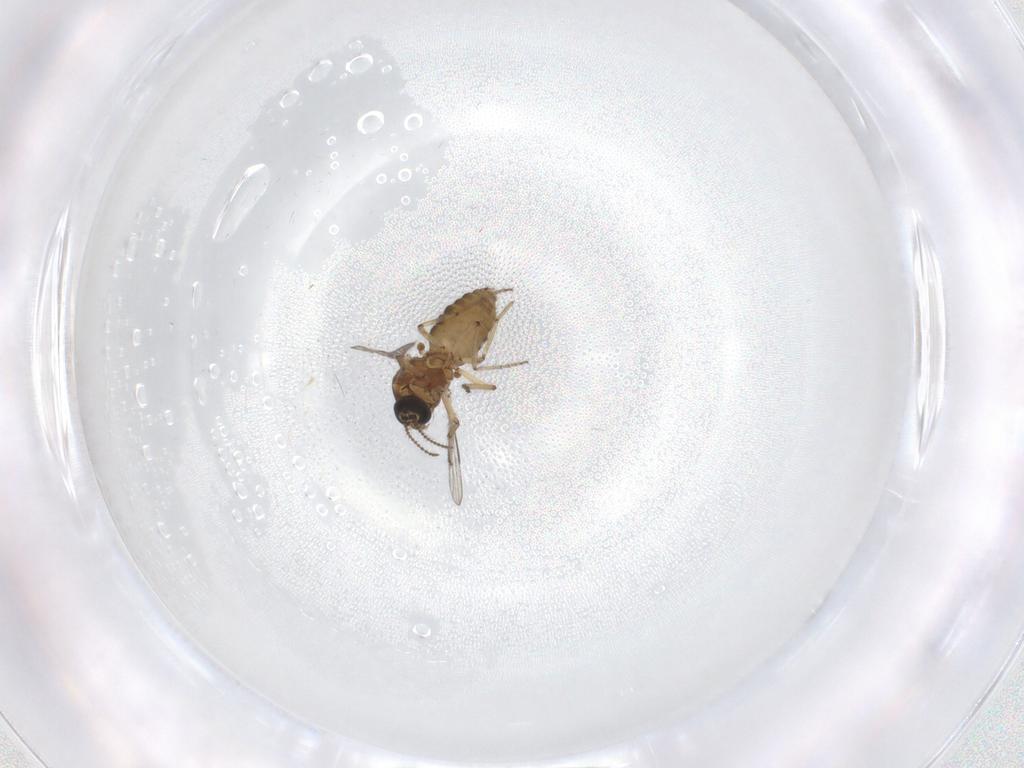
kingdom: Animalia
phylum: Arthropoda
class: Insecta
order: Diptera
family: Ceratopogonidae
